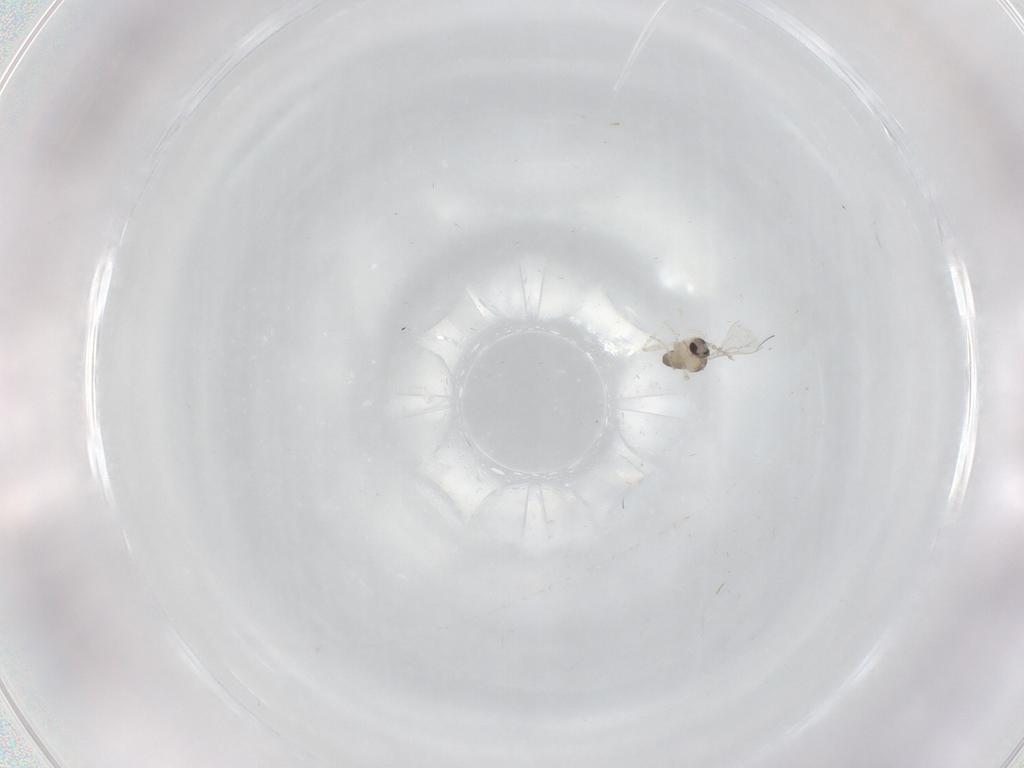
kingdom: Animalia
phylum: Arthropoda
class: Insecta
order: Diptera
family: Cecidomyiidae
